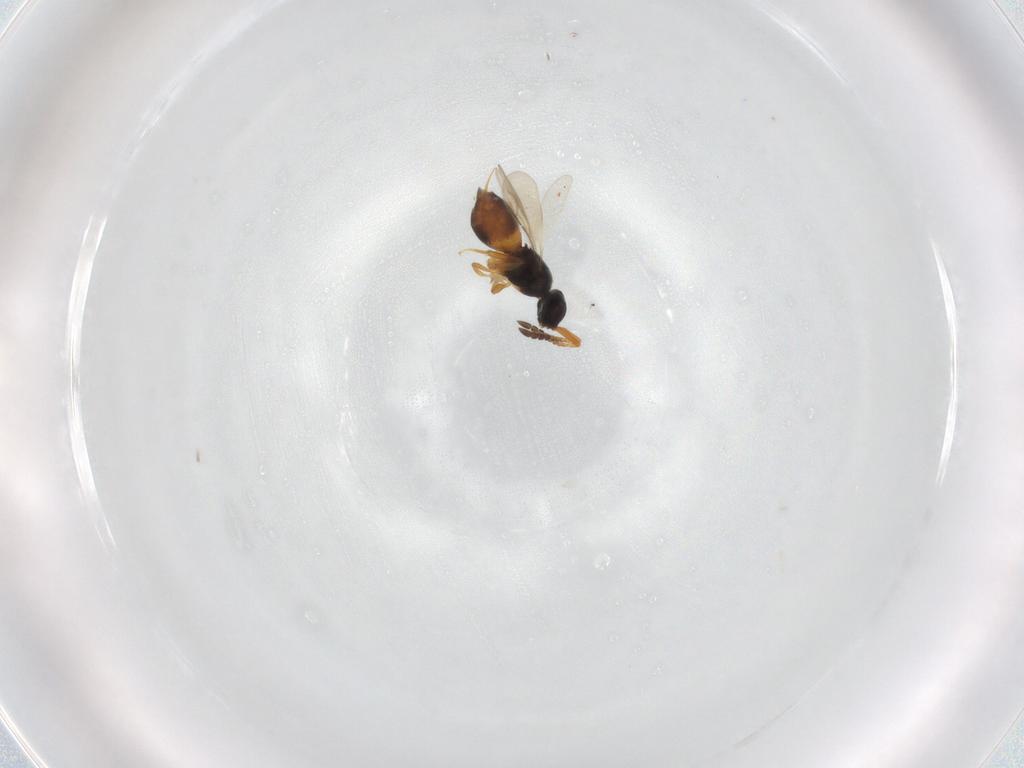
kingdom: Animalia
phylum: Arthropoda
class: Insecta
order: Hymenoptera
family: Ceraphronidae
